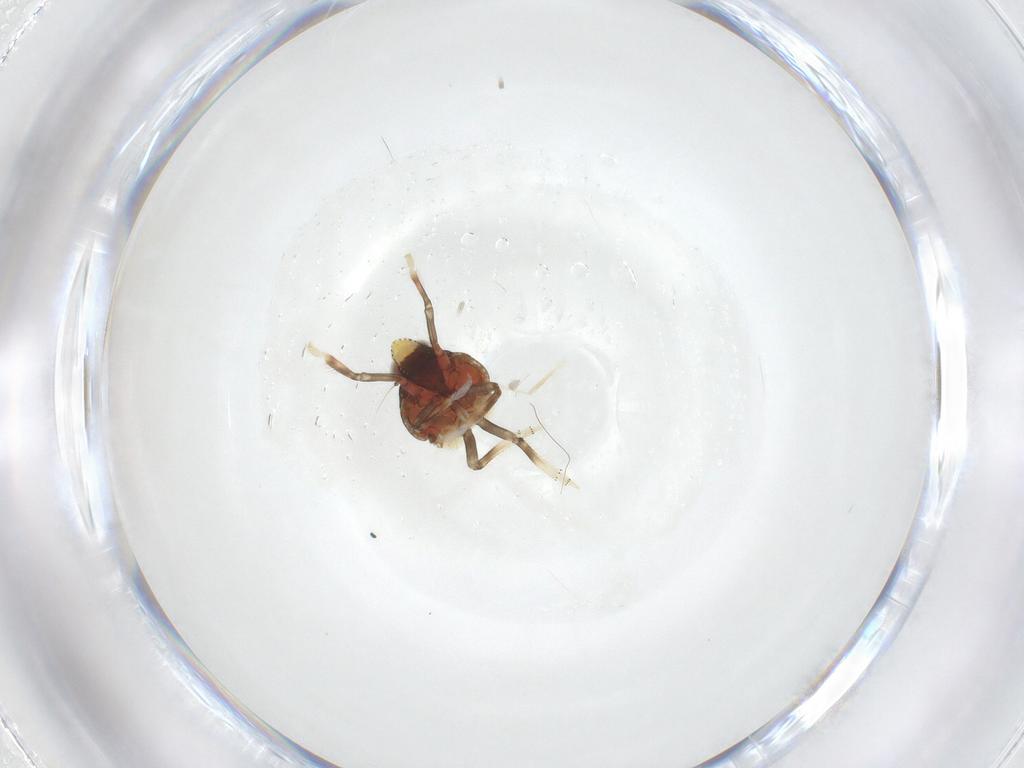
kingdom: Animalia
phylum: Arthropoda
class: Insecta
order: Hemiptera
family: Issidae
